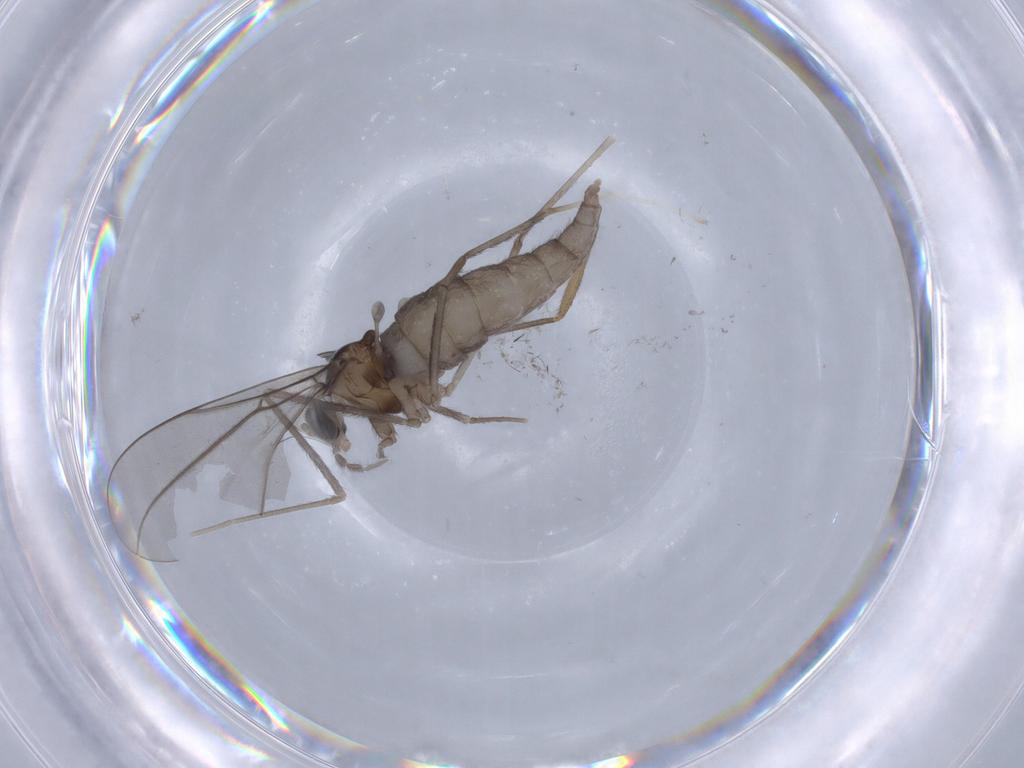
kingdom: Animalia
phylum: Arthropoda
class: Insecta
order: Diptera
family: Cecidomyiidae
